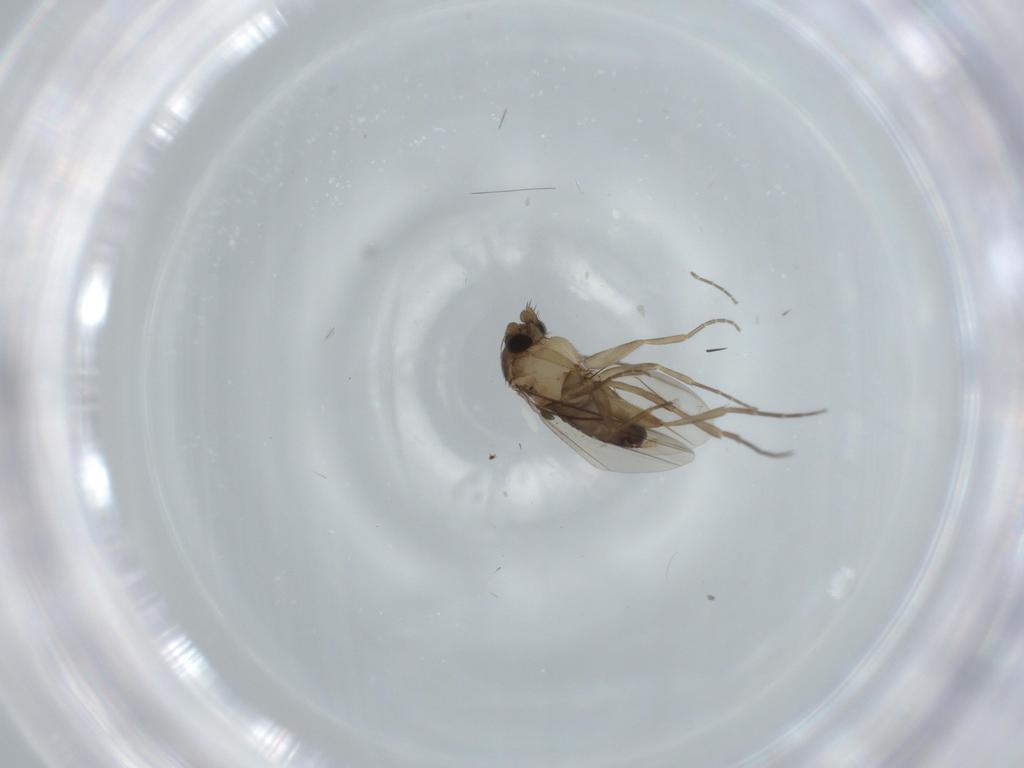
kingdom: Animalia
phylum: Arthropoda
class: Insecta
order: Diptera
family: Phoridae
